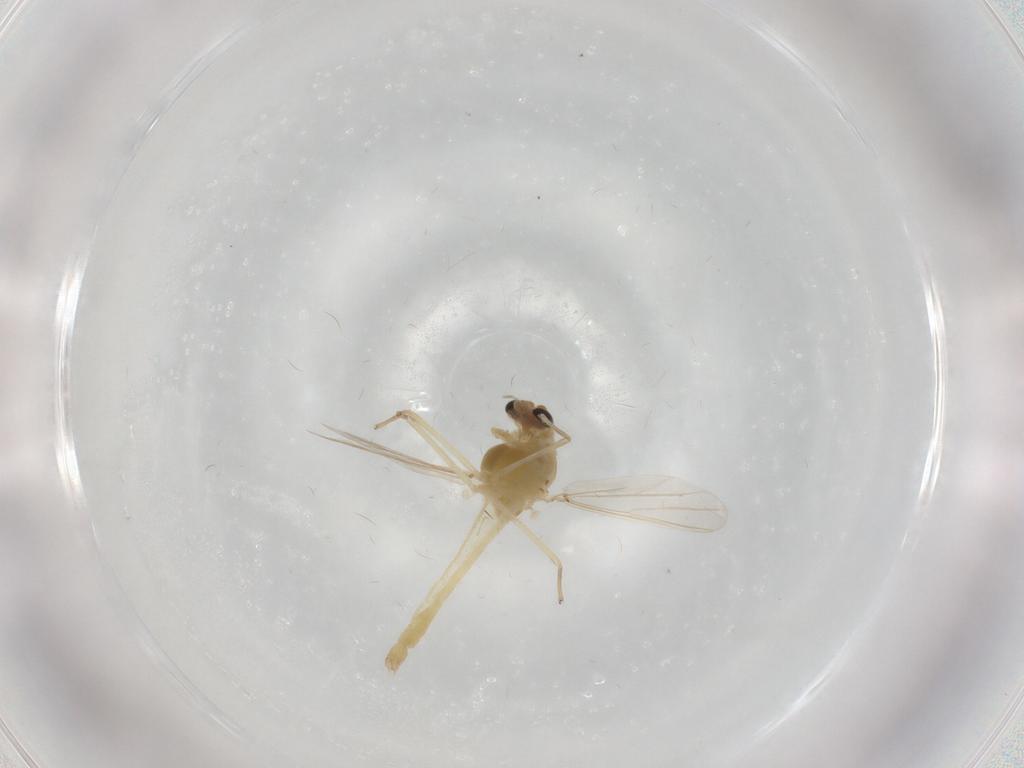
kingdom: Animalia
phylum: Arthropoda
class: Insecta
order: Diptera
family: Chironomidae
